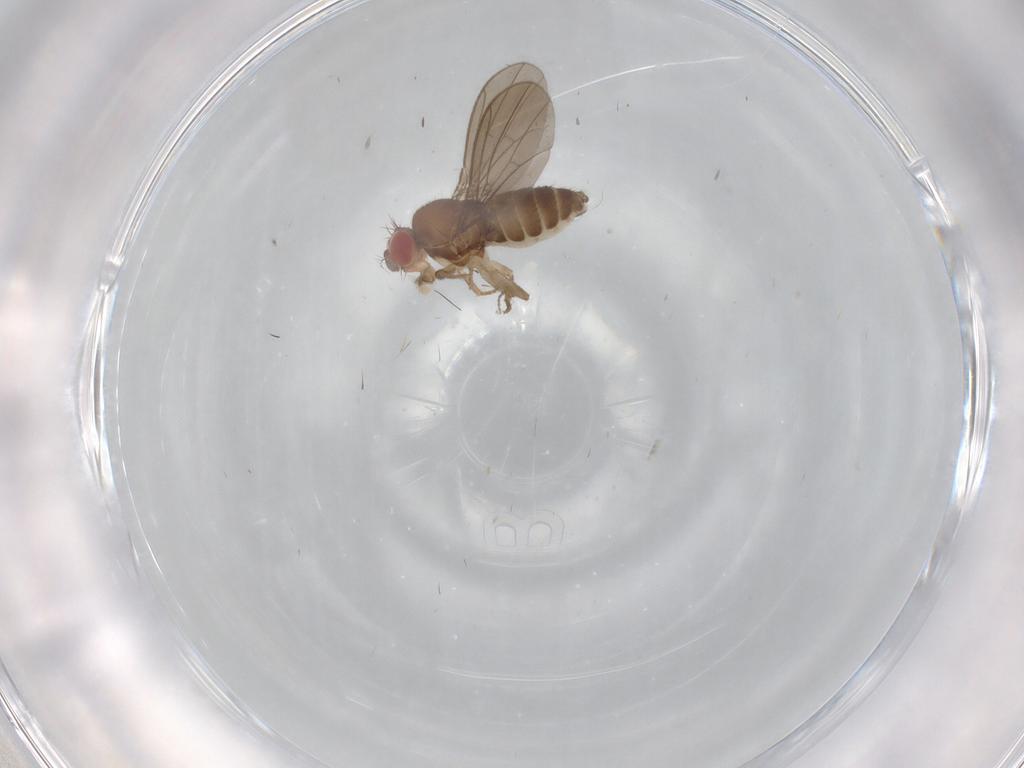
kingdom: Animalia
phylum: Arthropoda
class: Insecta
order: Diptera
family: Drosophilidae
